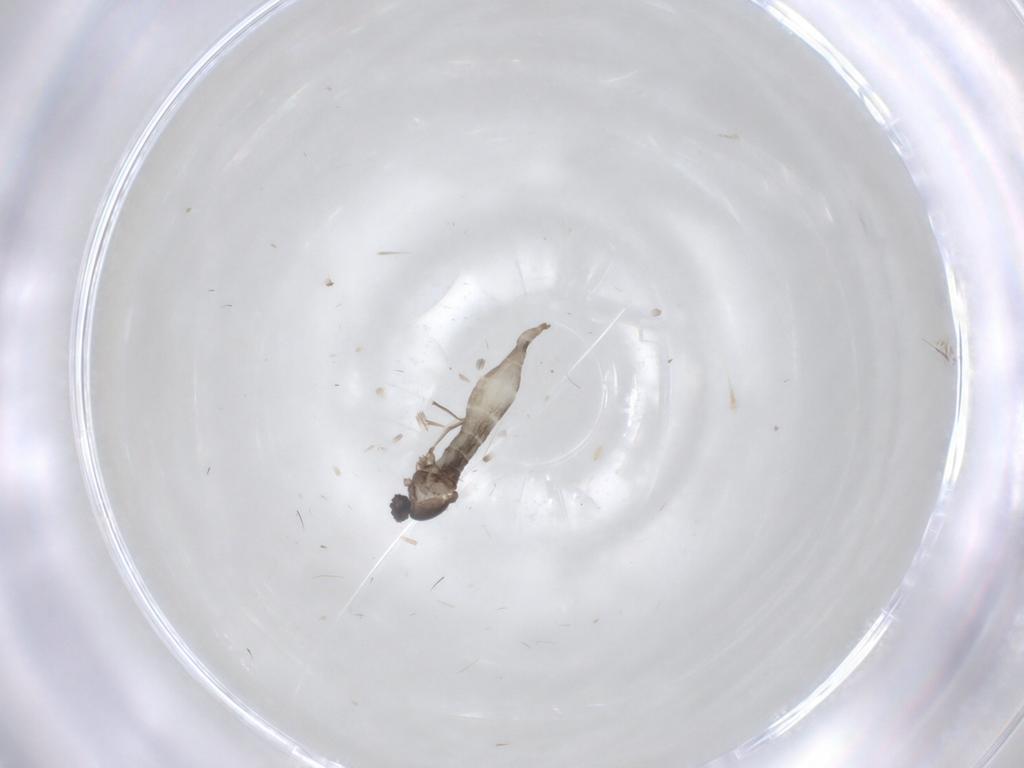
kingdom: Animalia
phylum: Arthropoda
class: Insecta
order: Diptera
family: Cecidomyiidae
